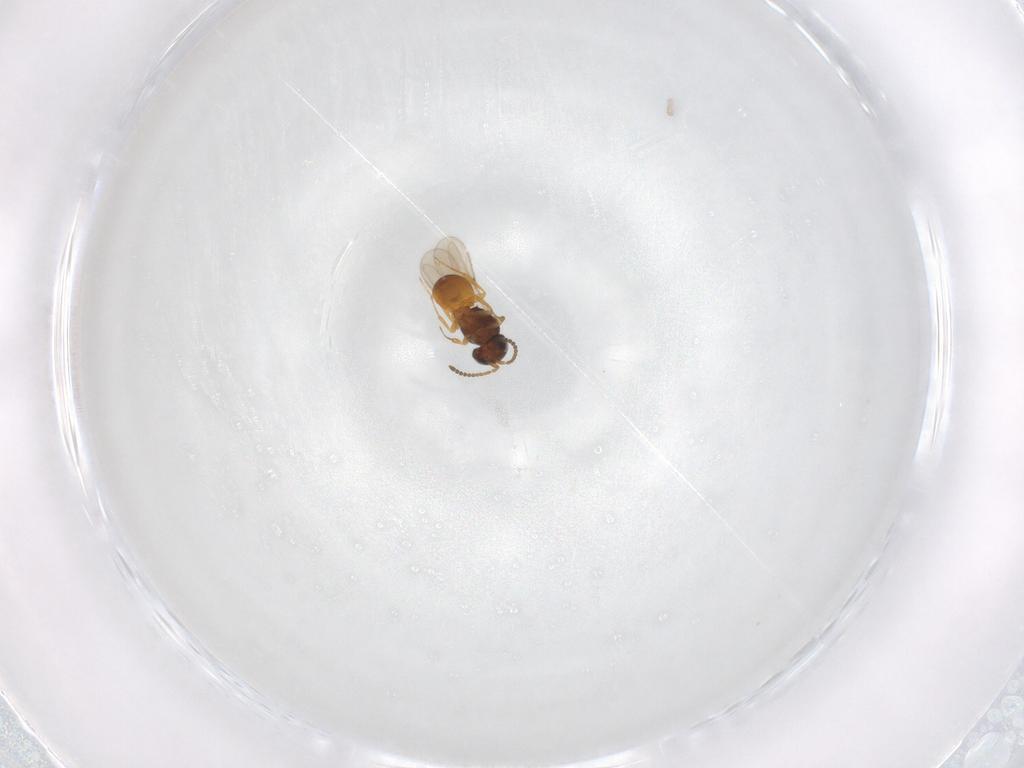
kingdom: Animalia
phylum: Arthropoda
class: Insecta
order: Hymenoptera
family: Scelionidae
